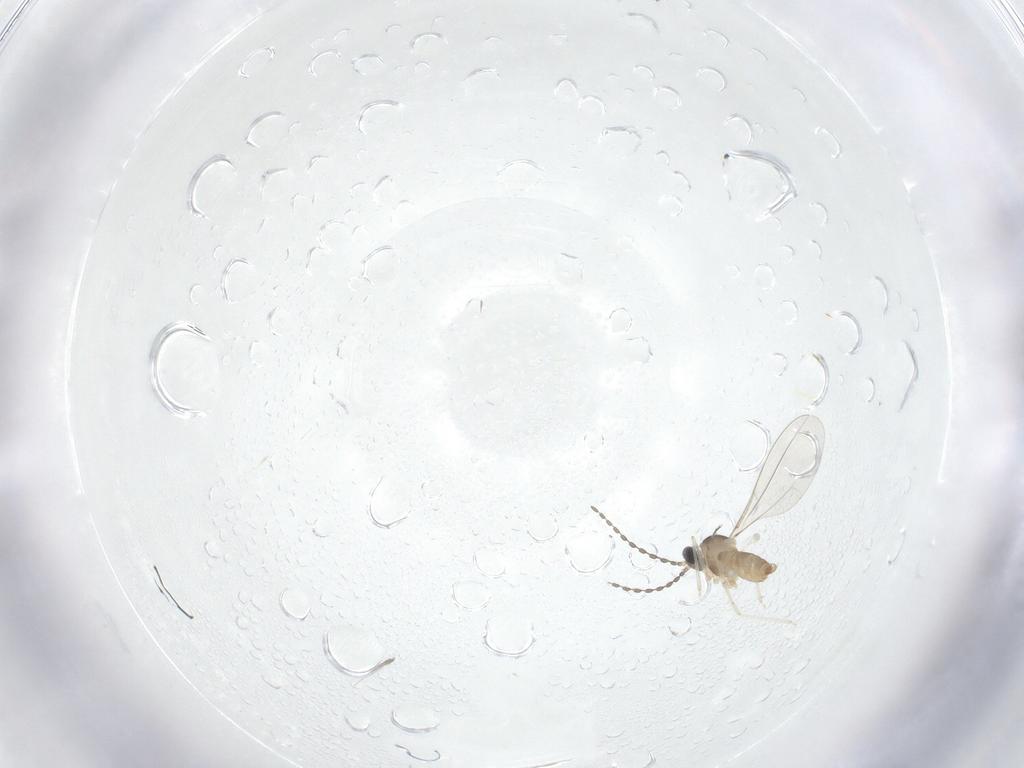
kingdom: Animalia
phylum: Arthropoda
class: Insecta
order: Diptera
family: Cecidomyiidae
